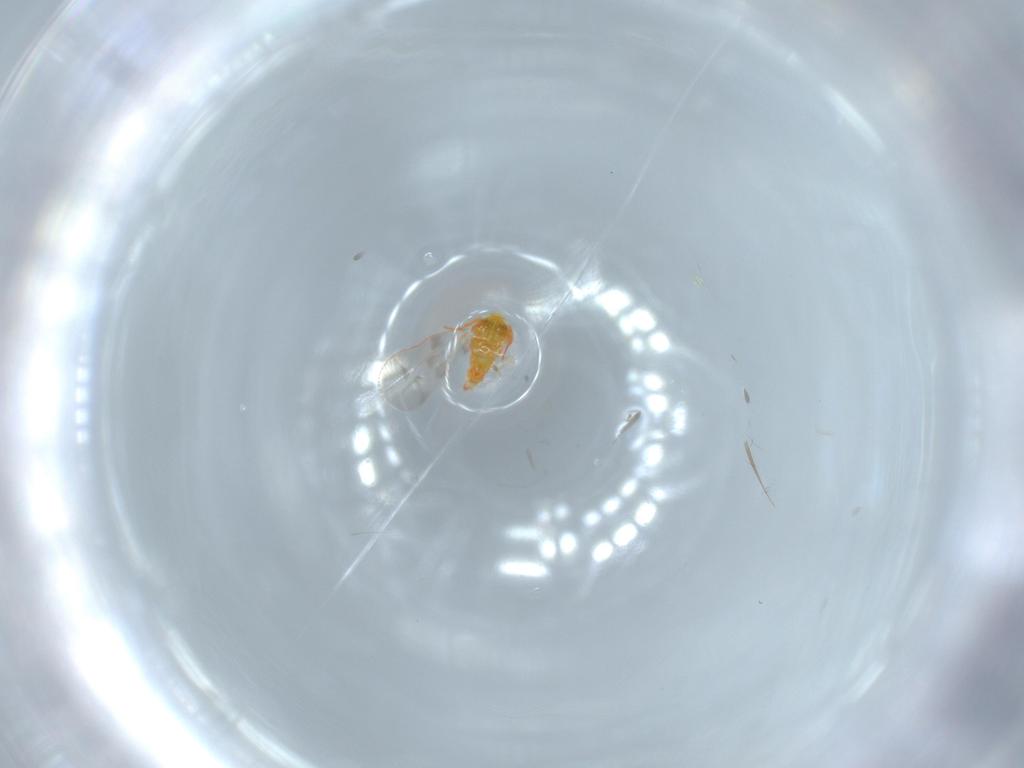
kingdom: Animalia
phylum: Arthropoda
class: Insecta
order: Hemiptera
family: Aleyrodidae
